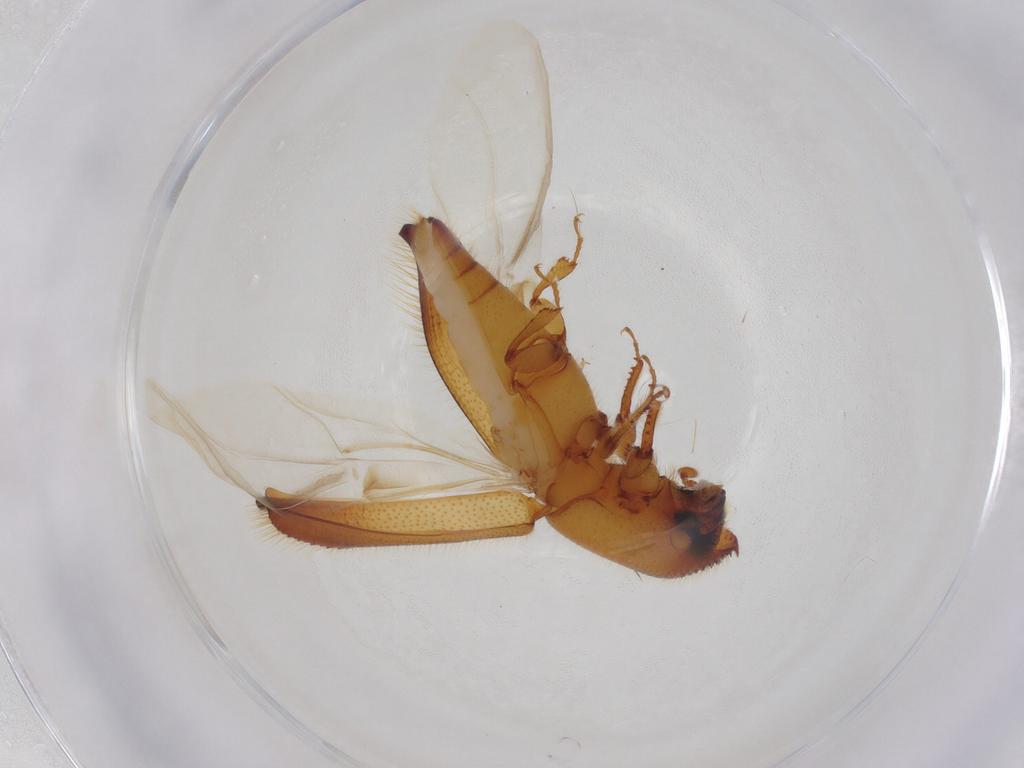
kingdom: Animalia
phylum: Arthropoda
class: Insecta
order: Coleoptera
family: Curculionidae
